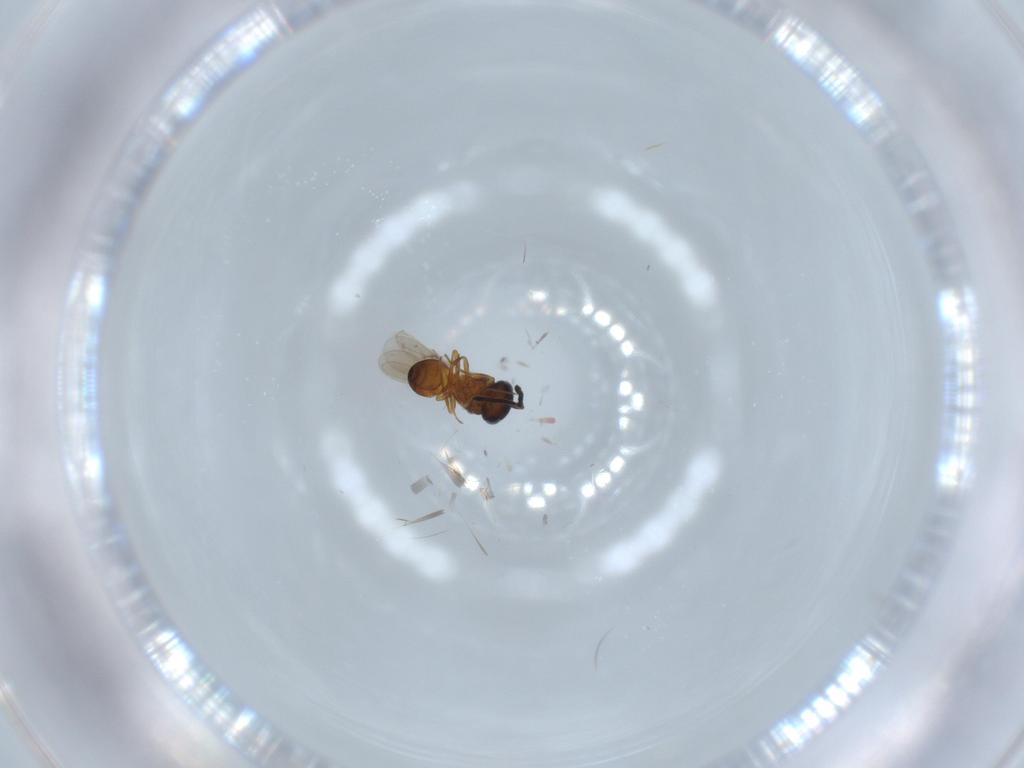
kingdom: Animalia
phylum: Arthropoda
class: Insecta
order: Hymenoptera
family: Scelionidae
